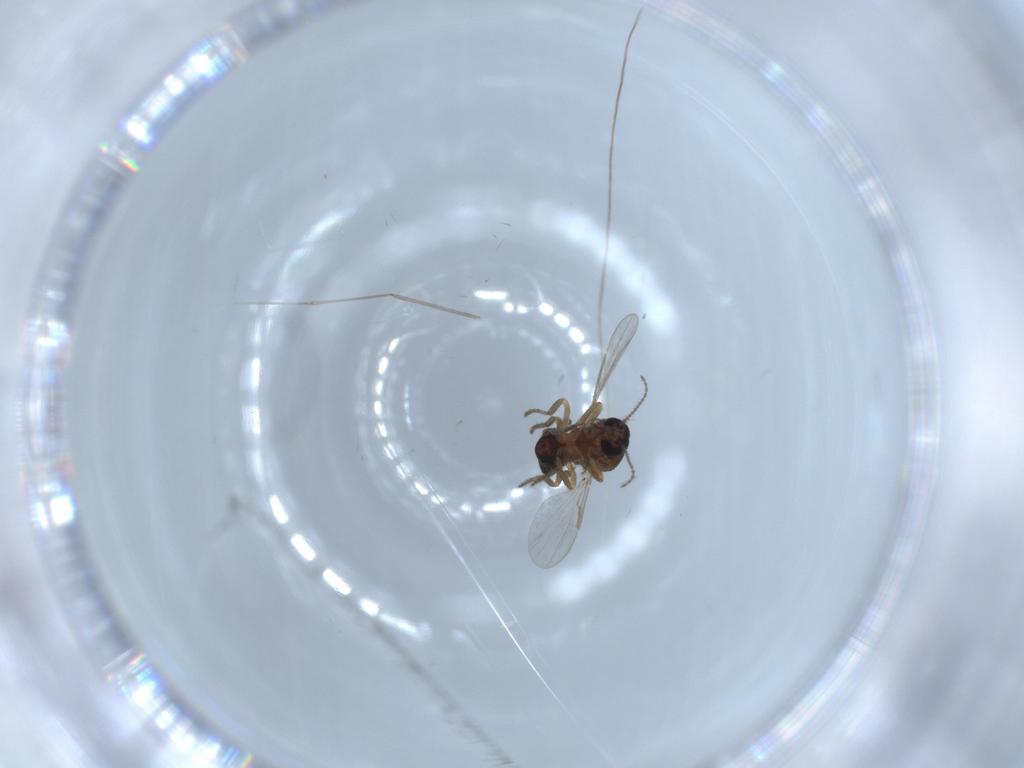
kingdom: Animalia
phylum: Arthropoda
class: Insecta
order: Diptera
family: Ceratopogonidae
